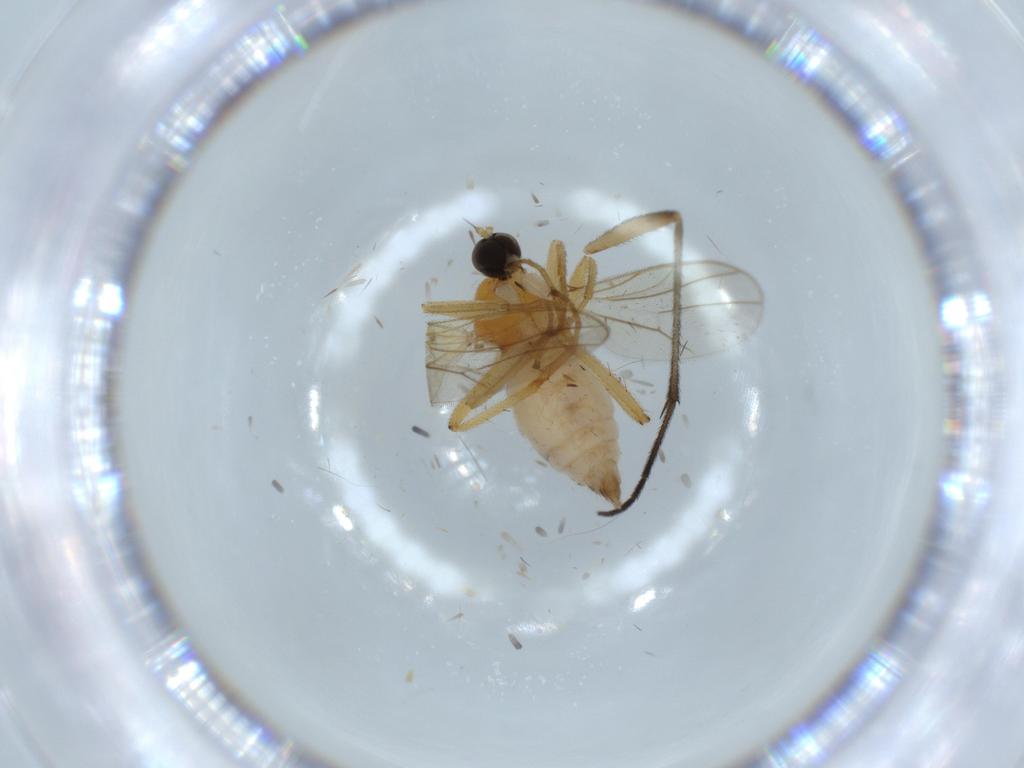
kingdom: Animalia
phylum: Arthropoda
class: Insecta
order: Diptera
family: Hybotidae
